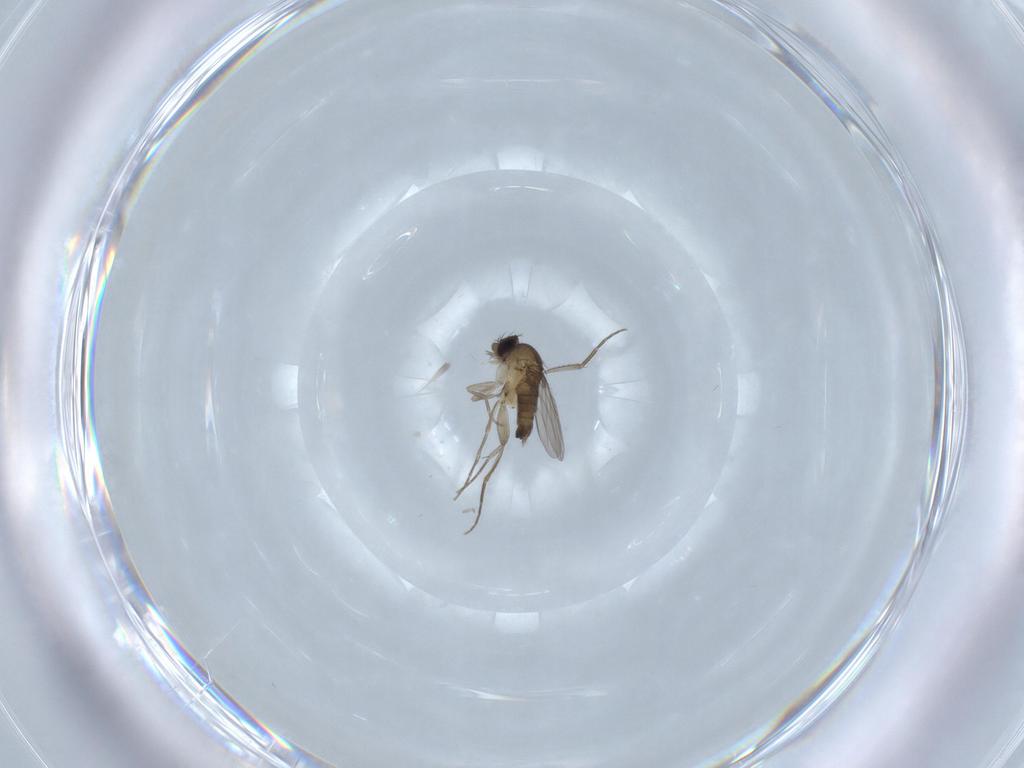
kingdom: Animalia
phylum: Arthropoda
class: Insecta
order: Diptera
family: Phoridae
